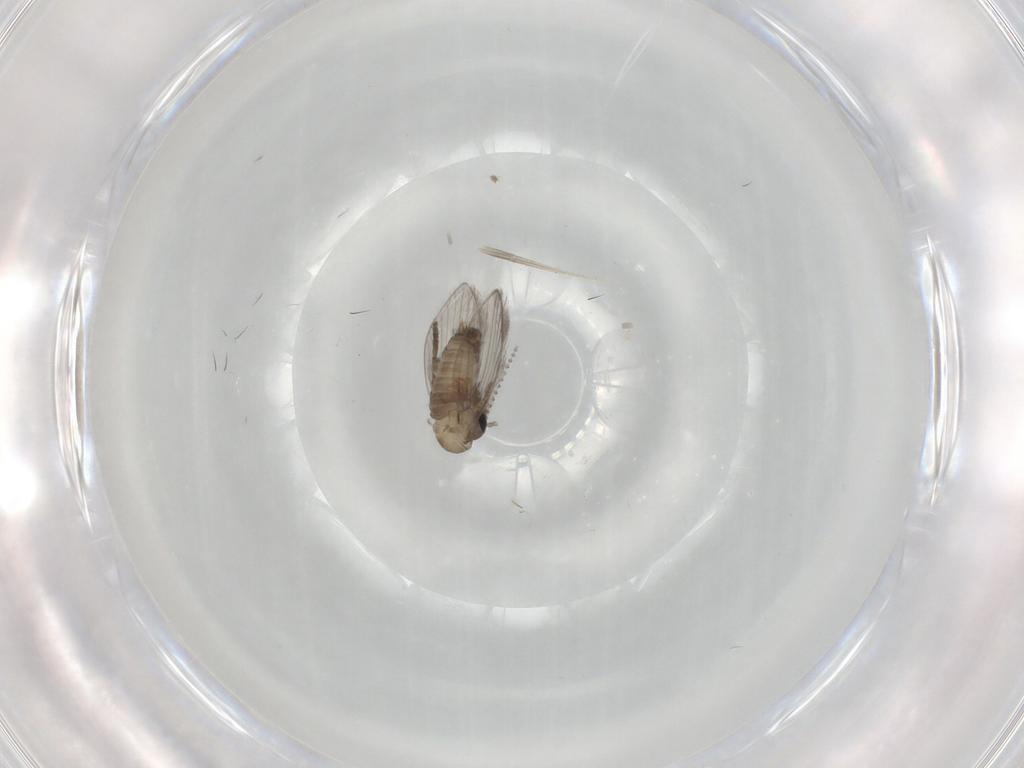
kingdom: Animalia
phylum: Arthropoda
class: Insecta
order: Diptera
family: Psychodidae
